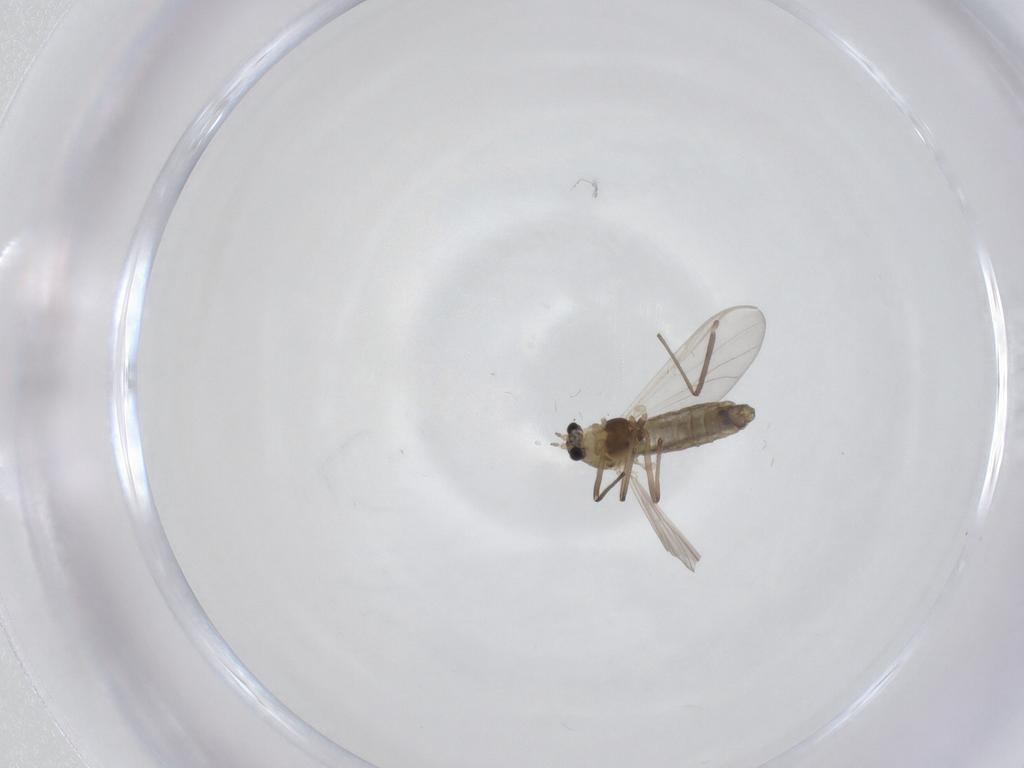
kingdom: Animalia
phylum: Arthropoda
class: Insecta
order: Diptera
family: Chironomidae
